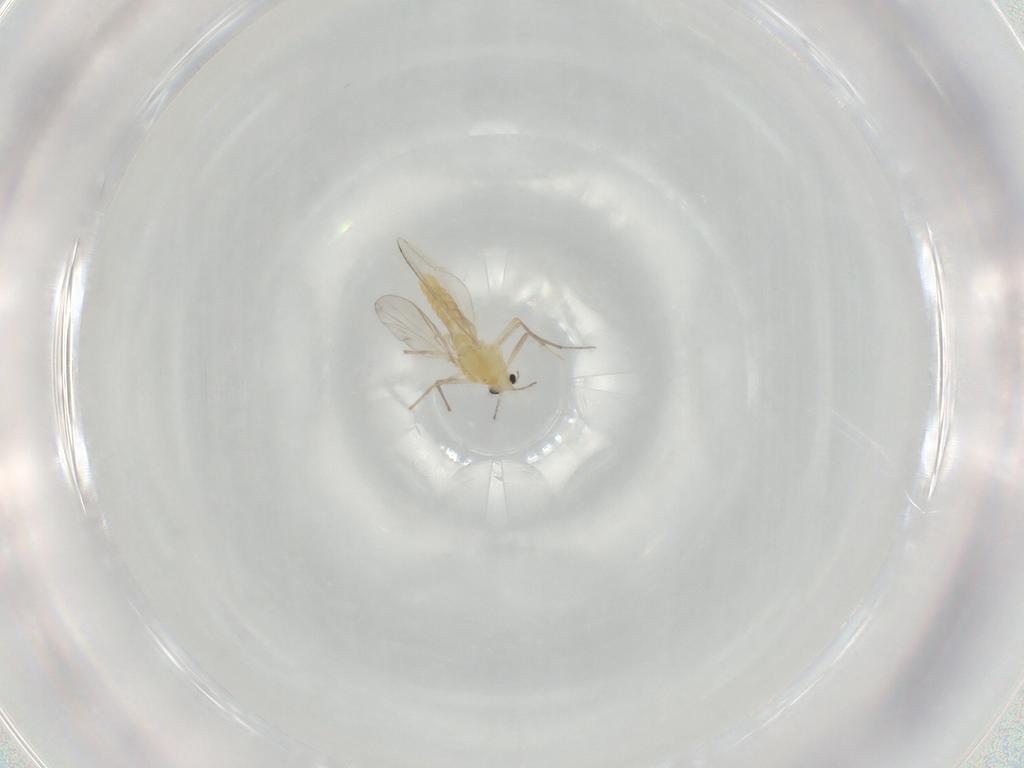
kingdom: Animalia
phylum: Arthropoda
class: Insecta
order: Diptera
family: Chironomidae
